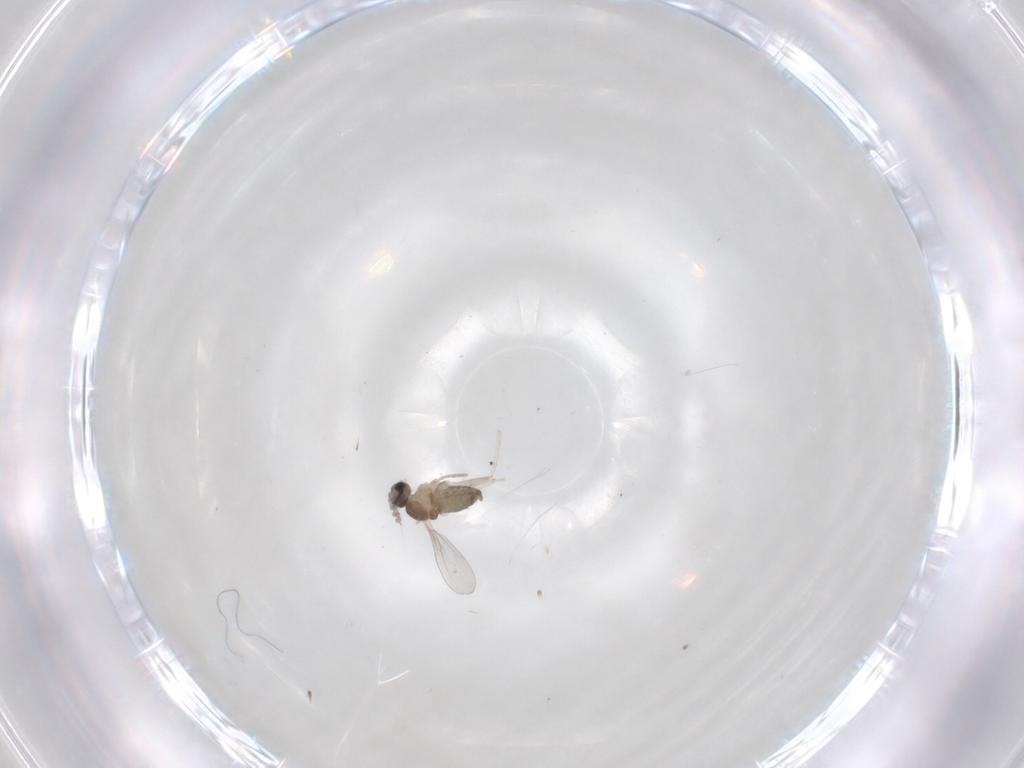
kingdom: Animalia
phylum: Arthropoda
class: Insecta
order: Diptera
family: Cecidomyiidae
